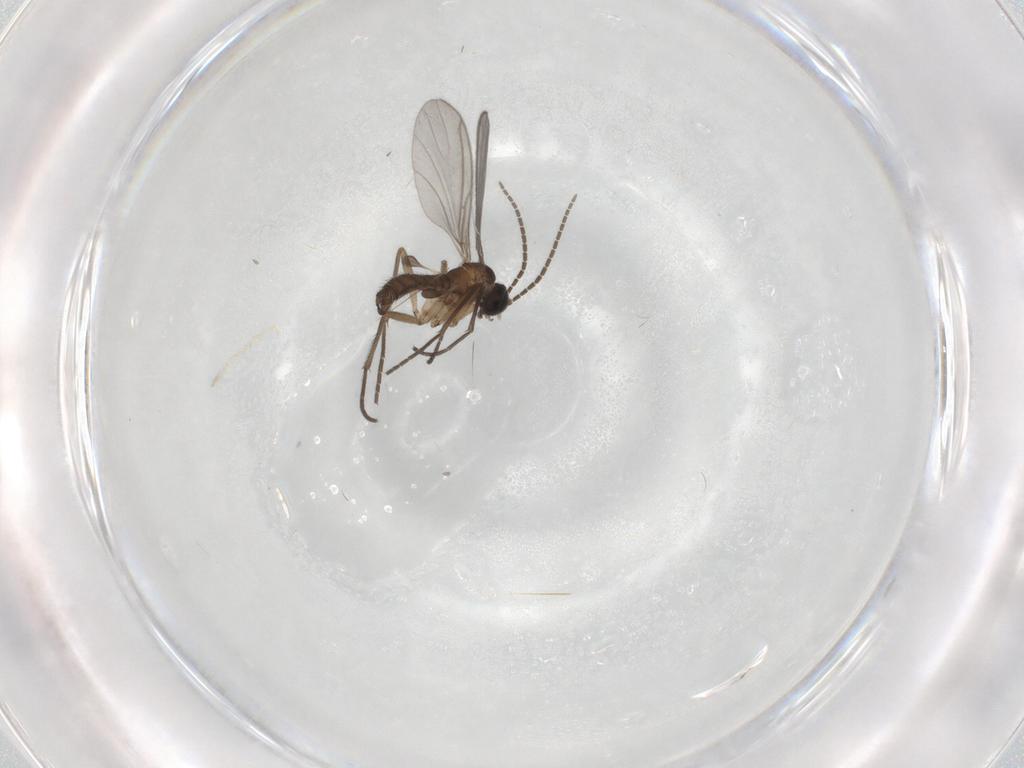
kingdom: Animalia
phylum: Arthropoda
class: Insecta
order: Diptera
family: Sciaridae
